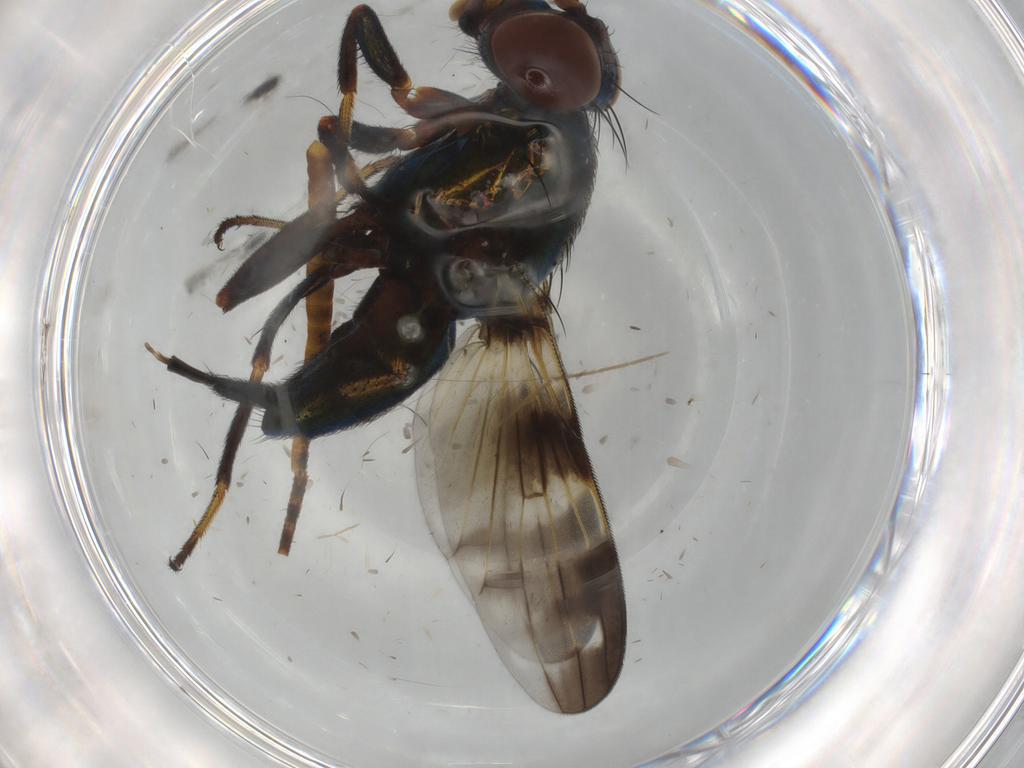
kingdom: Animalia
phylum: Arthropoda
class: Insecta
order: Diptera
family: Ulidiidae
